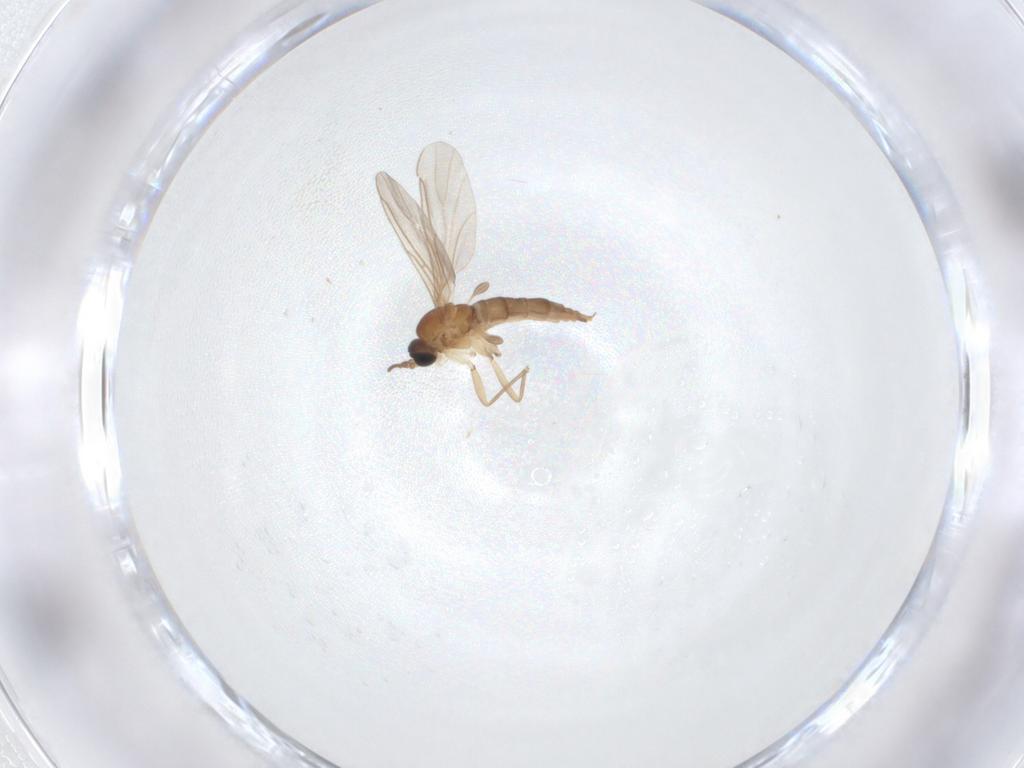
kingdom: Animalia
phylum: Arthropoda
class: Insecta
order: Diptera
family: Sciaridae
